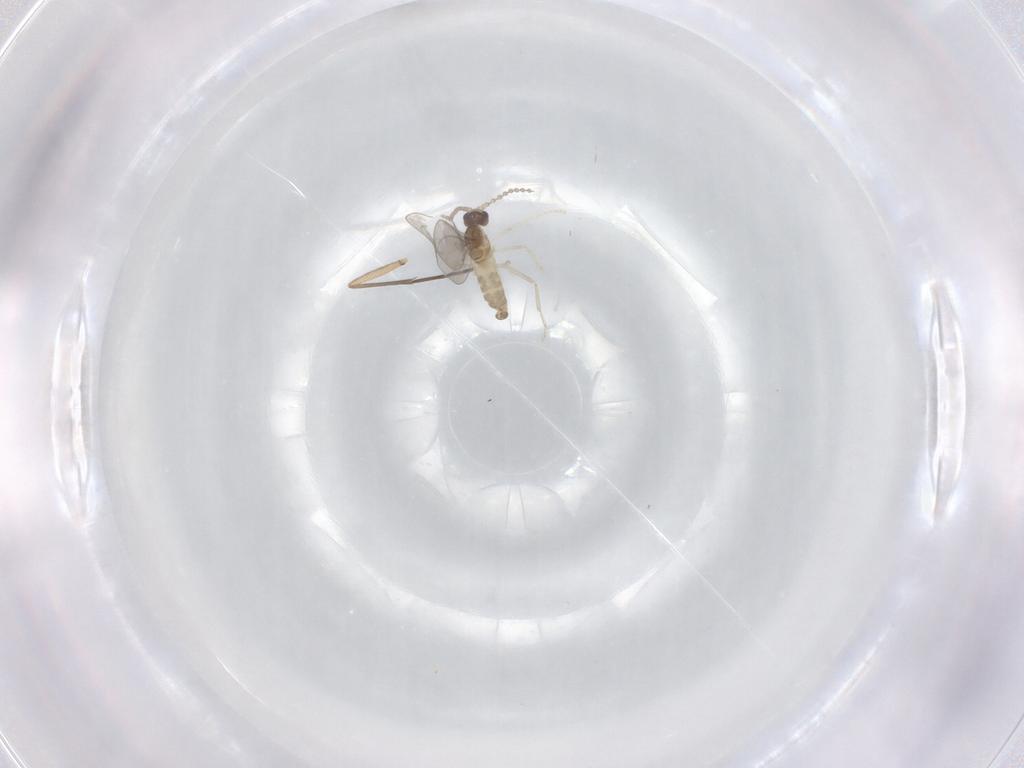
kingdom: Animalia
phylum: Arthropoda
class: Insecta
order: Diptera
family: Cecidomyiidae
